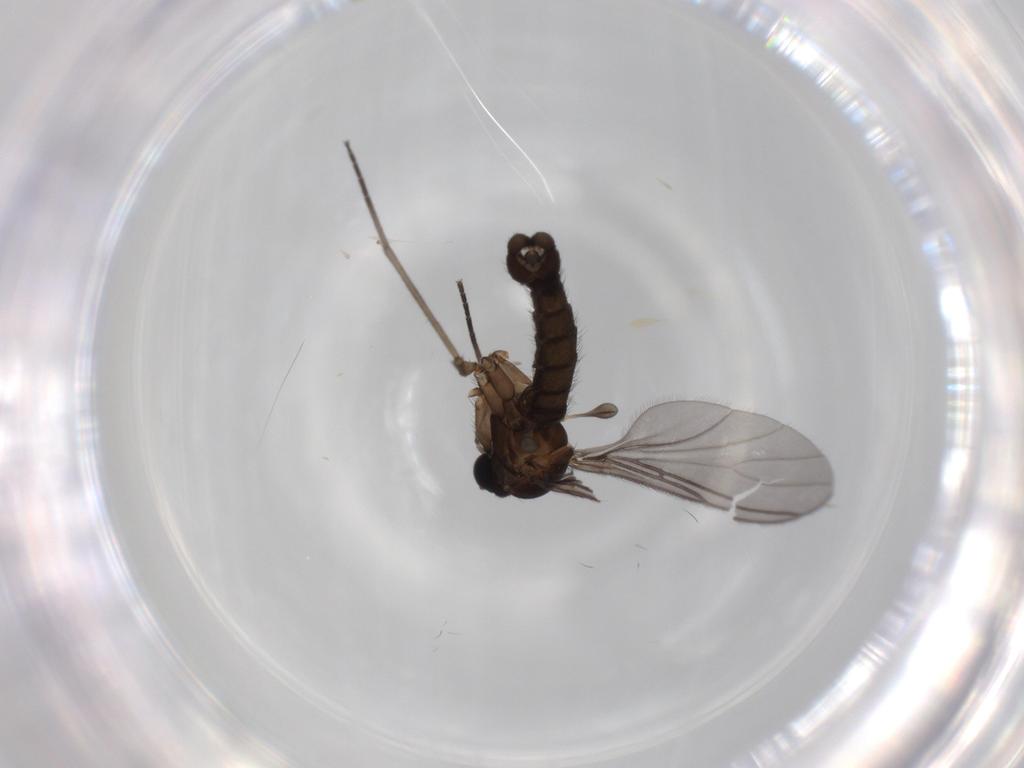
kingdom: Animalia
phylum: Arthropoda
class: Insecta
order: Diptera
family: Sciaridae
